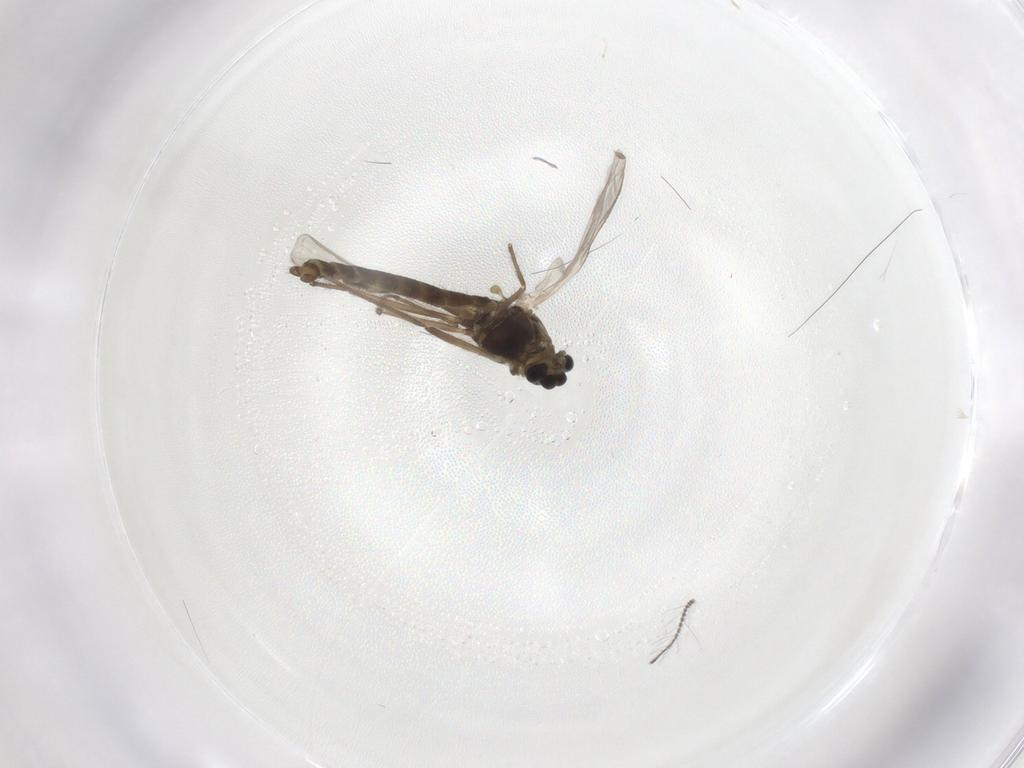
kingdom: Animalia
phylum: Arthropoda
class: Insecta
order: Diptera
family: Chironomidae
